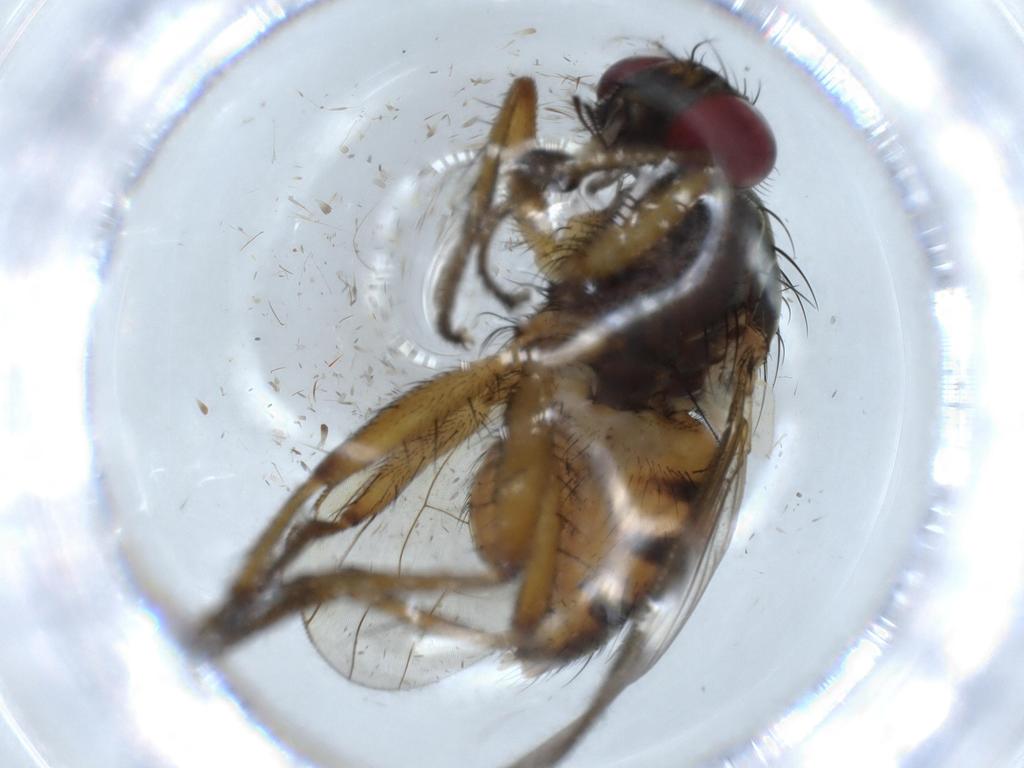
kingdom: Animalia
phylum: Arthropoda
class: Insecta
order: Diptera
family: Muscidae
